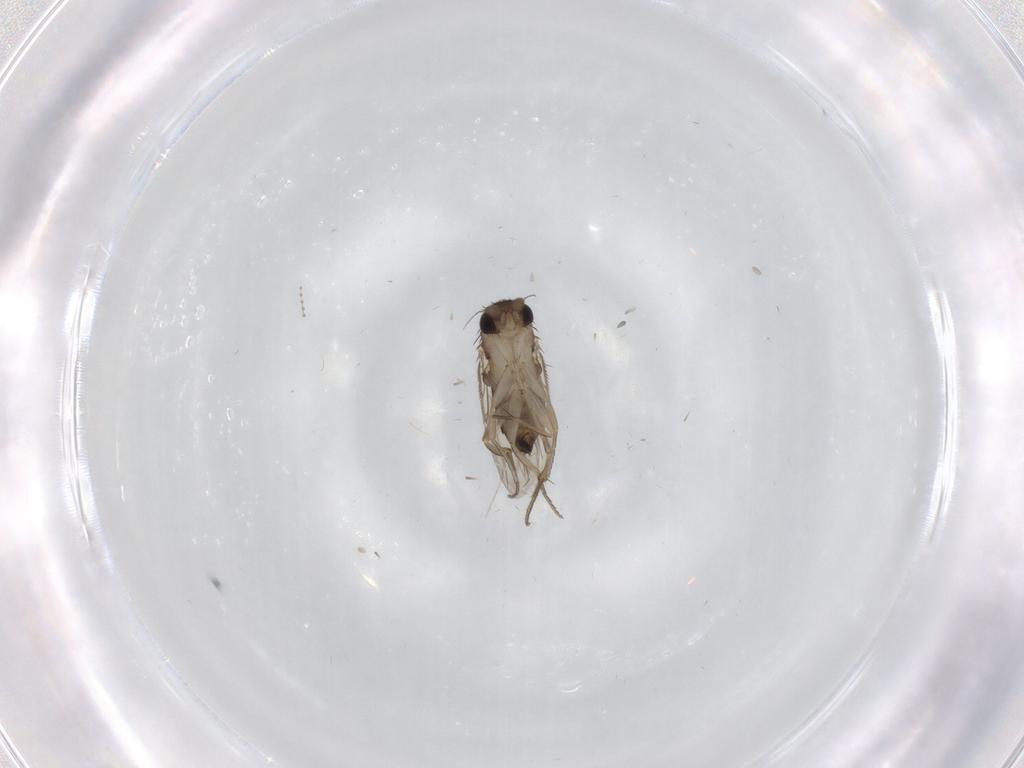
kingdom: Animalia
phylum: Arthropoda
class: Insecta
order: Diptera
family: Phoridae
